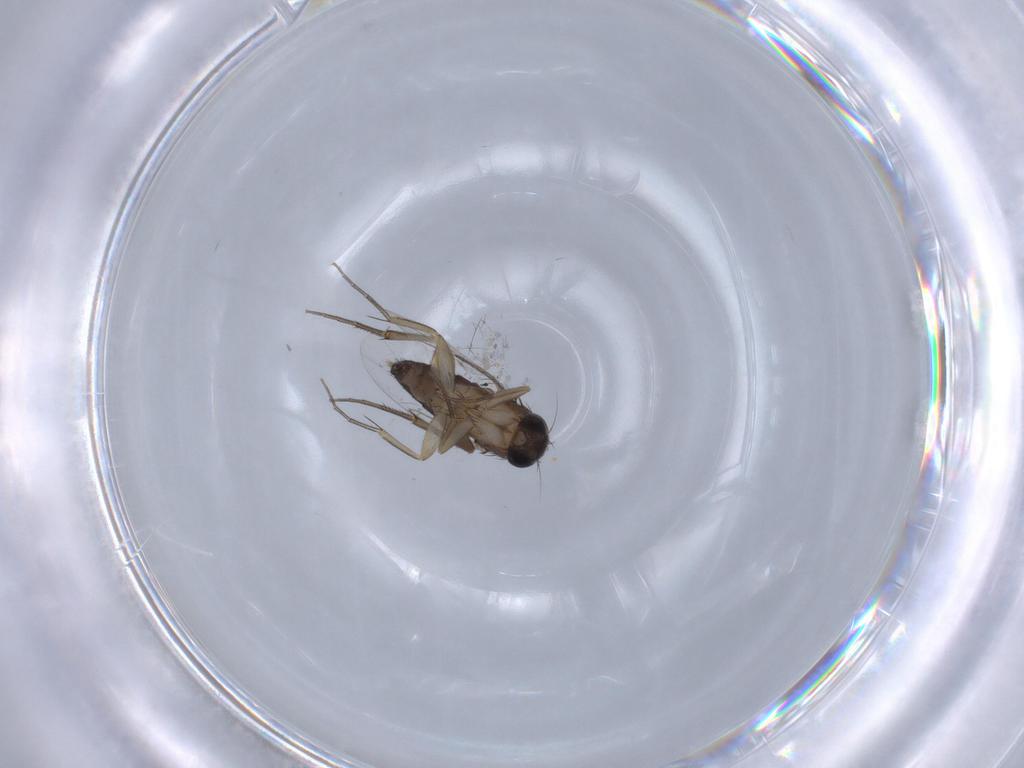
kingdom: Animalia
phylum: Arthropoda
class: Insecta
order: Diptera
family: Phoridae
